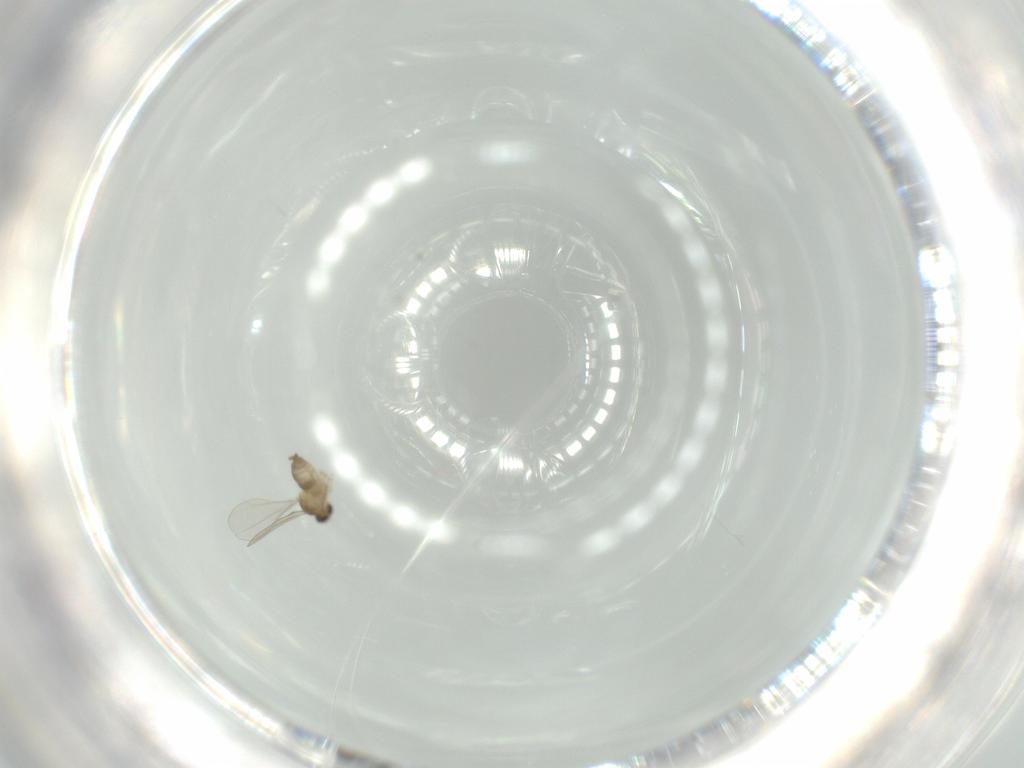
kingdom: Animalia
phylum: Arthropoda
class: Insecta
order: Diptera
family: Cecidomyiidae
